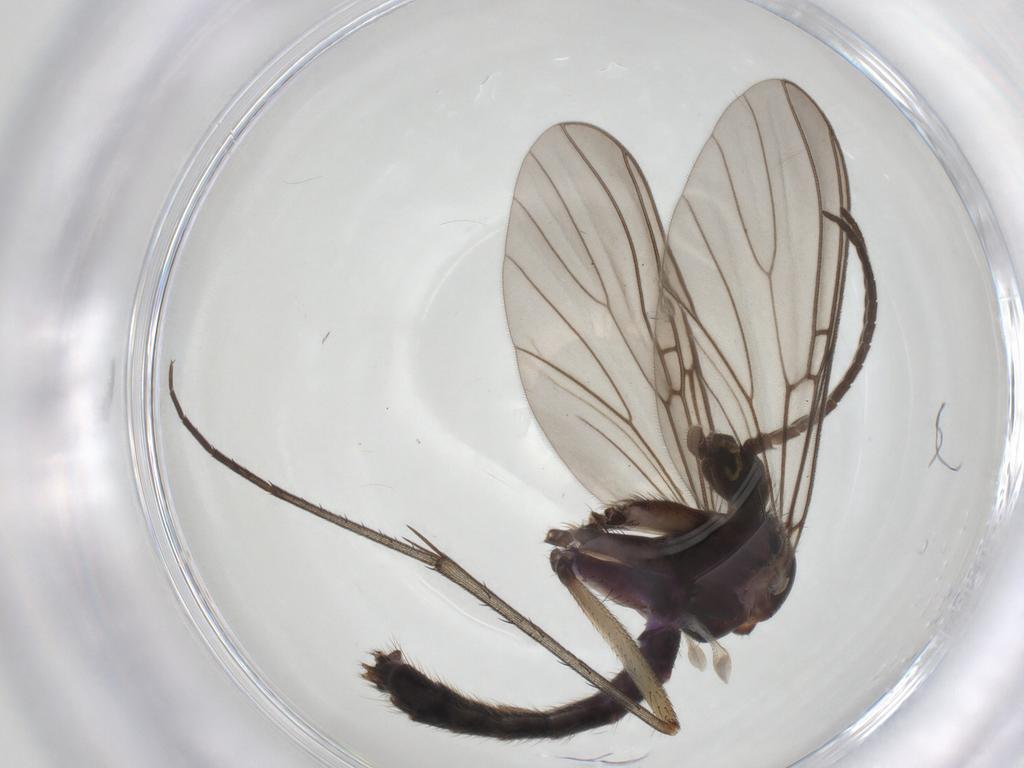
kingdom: Animalia
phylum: Arthropoda
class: Insecta
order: Diptera
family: Mycetophilidae
